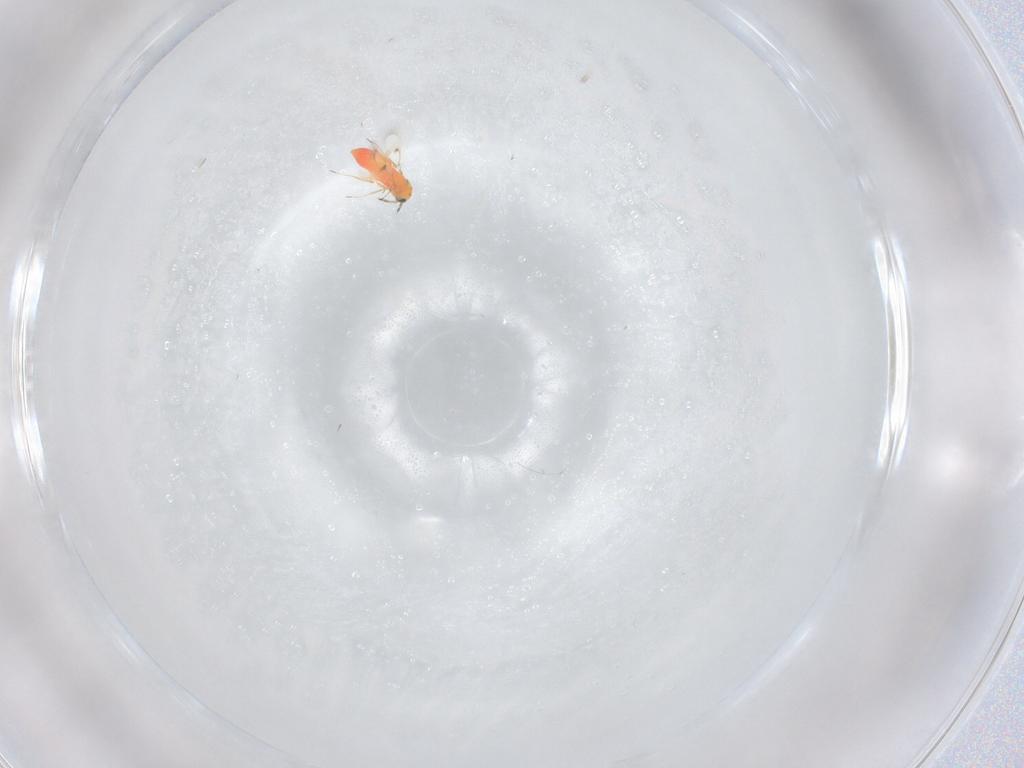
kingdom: Animalia
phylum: Arthropoda
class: Insecta
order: Hymenoptera
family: Trichogrammatidae
